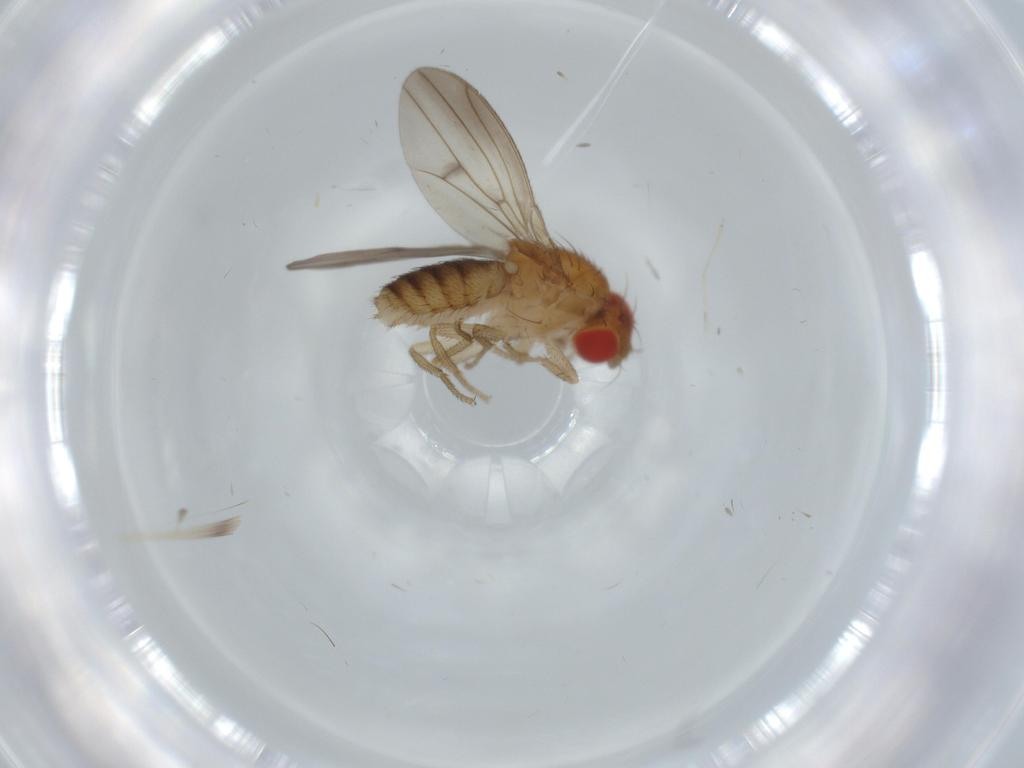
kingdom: Animalia
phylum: Arthropoda
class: Insecta
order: Diptera
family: Muscidae
